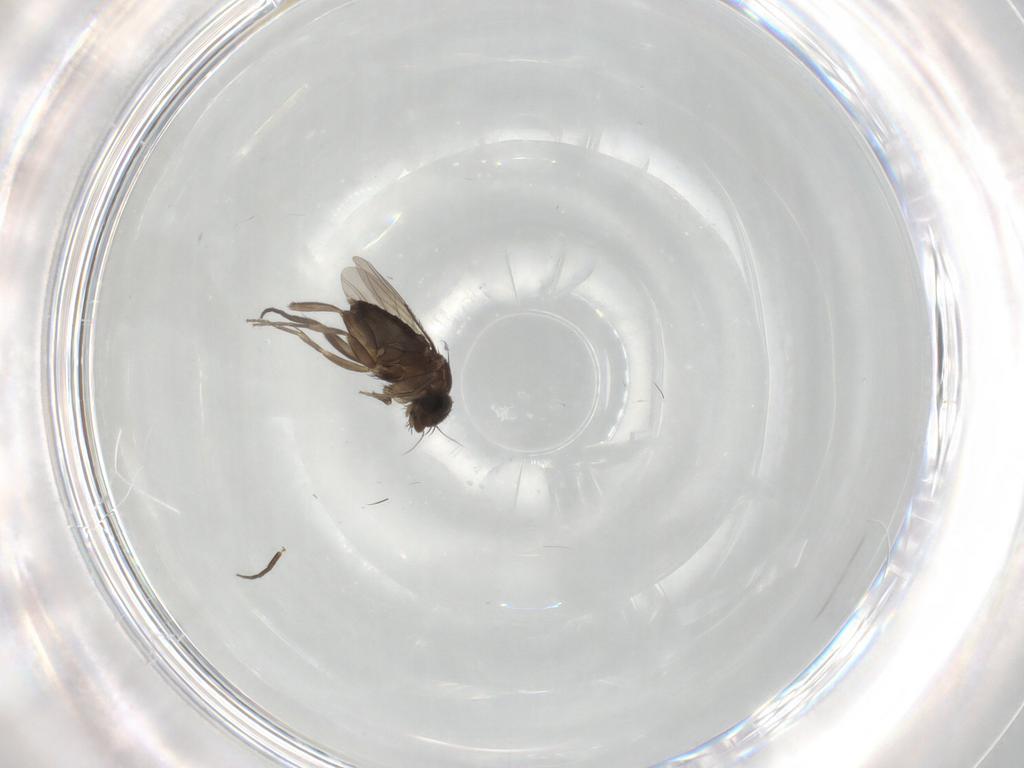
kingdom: Animalia
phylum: Arthropoda
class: Insecta
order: Diptera
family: Phoridae
